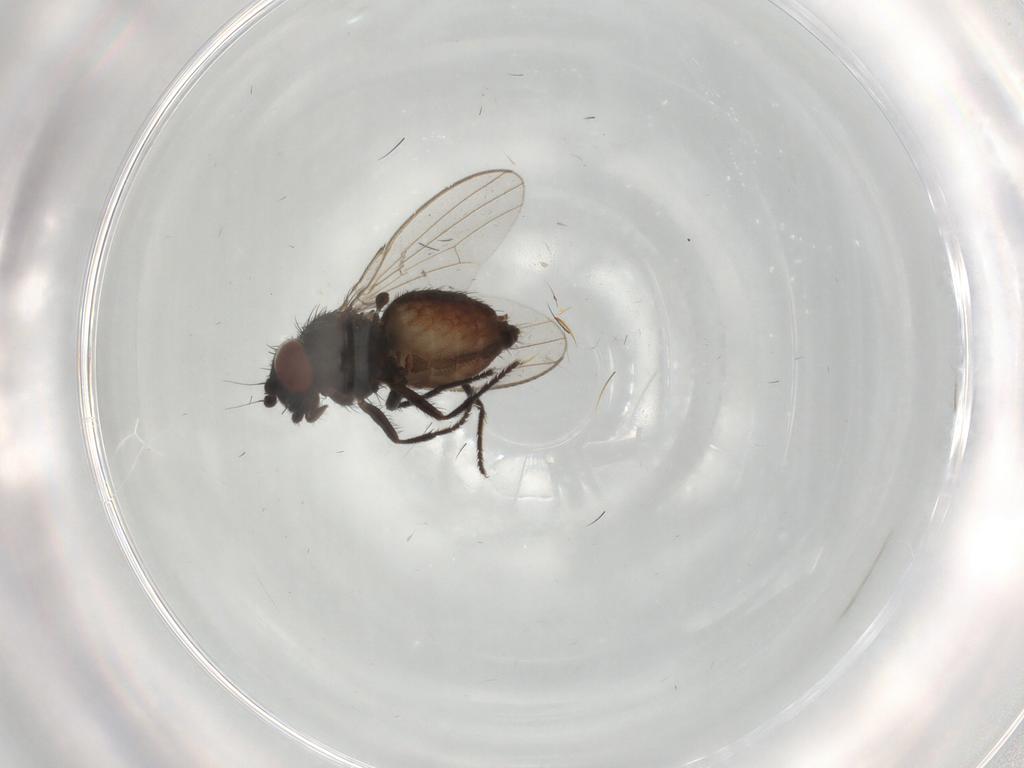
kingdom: Animalia
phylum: Arthropoda
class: Insecta
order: Diptera
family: Milichiidae
